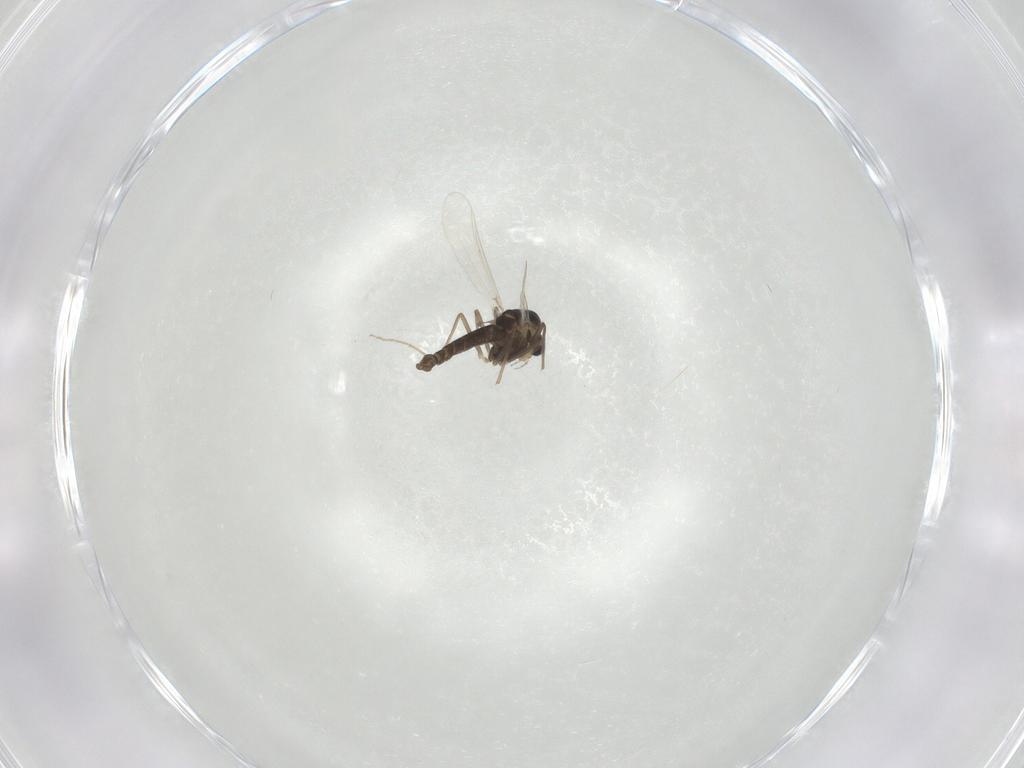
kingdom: Animalia
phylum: Arthropoda
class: Insecta
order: Diptera
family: Chironomidae
